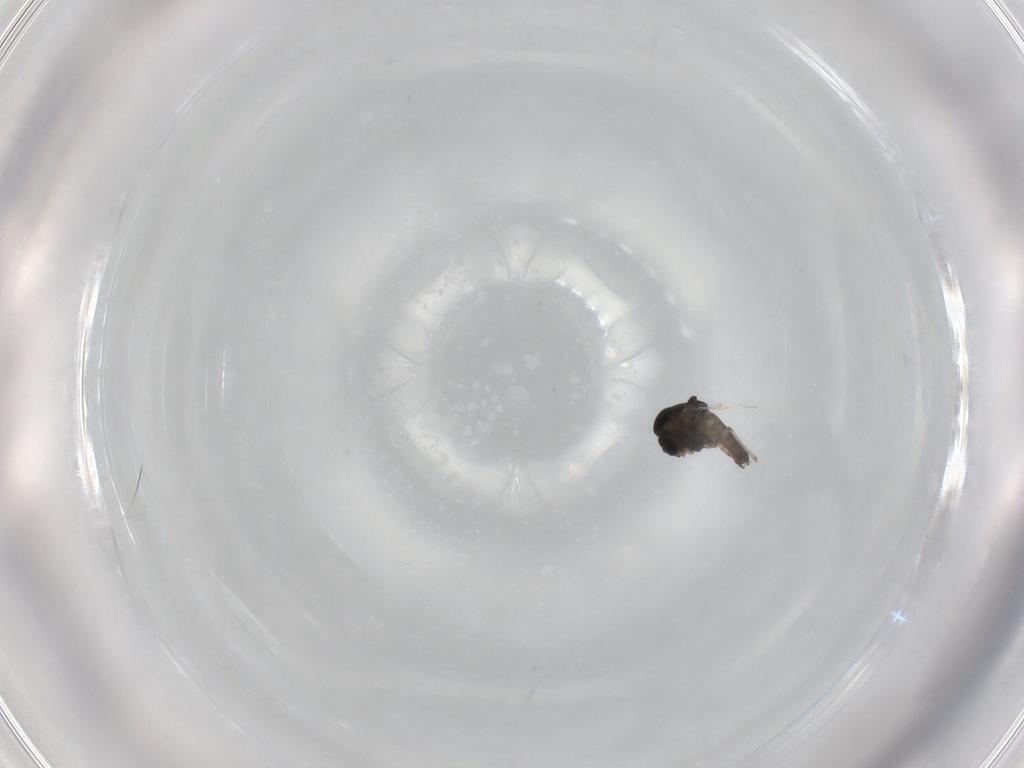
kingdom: Animalia
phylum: Arthropoda
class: Insecta
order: Diptera
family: Chironomidae
